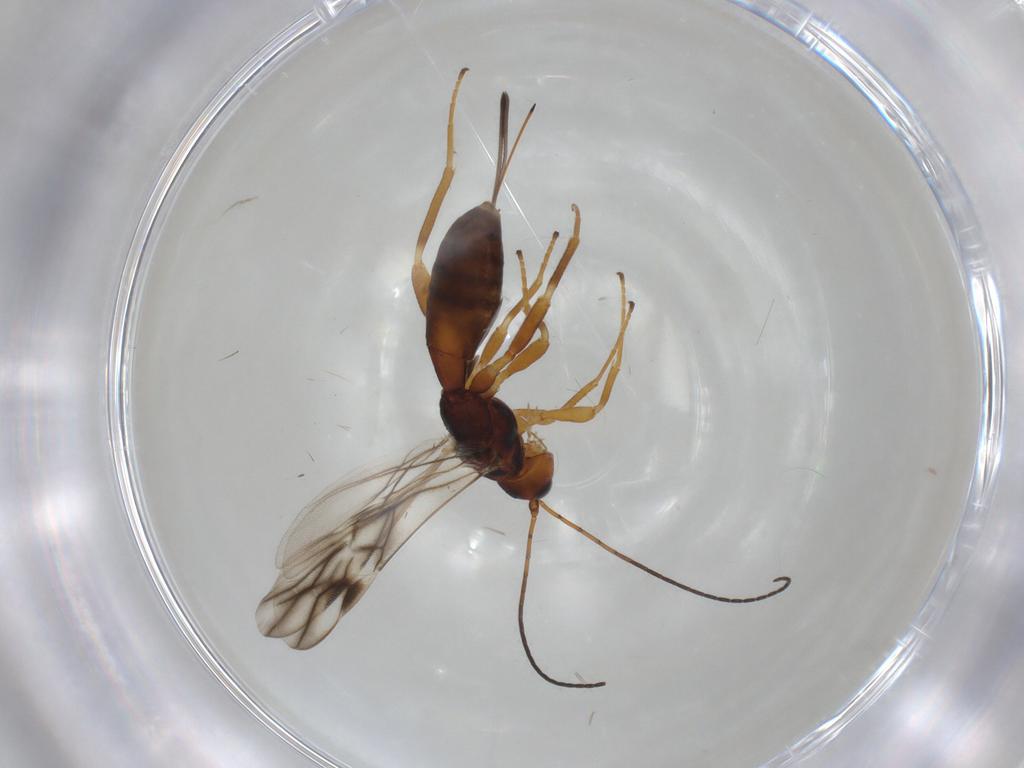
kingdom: Animalia
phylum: Arthropoda
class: Insecta
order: Hymenoptera
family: Braconidae
